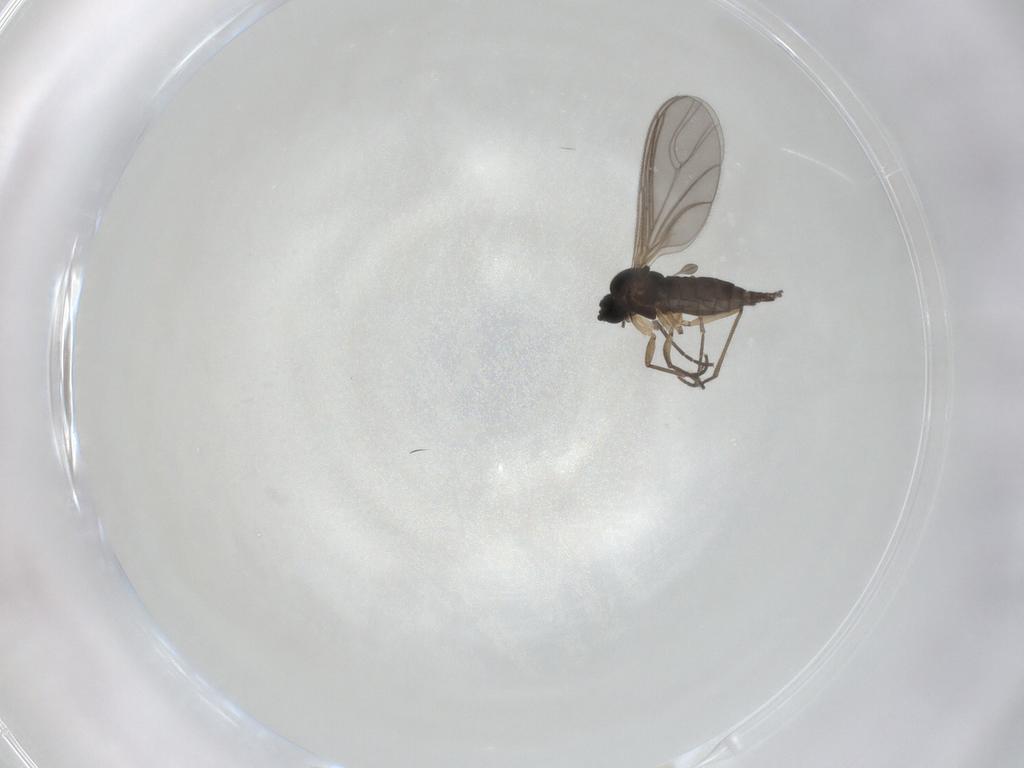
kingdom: Animalia
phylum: Arthropoda
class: Insecta
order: Diptera
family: Sciaridae
